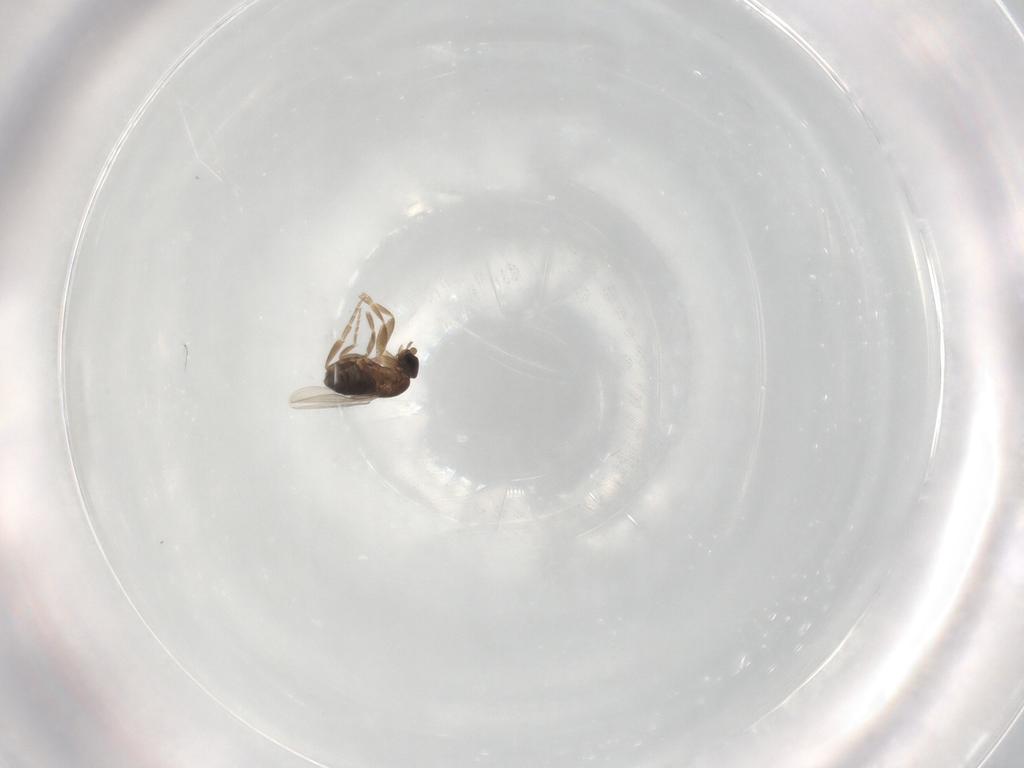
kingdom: Animalia
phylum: Arthropoda
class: Insecta
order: Diptera
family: Phoridae
